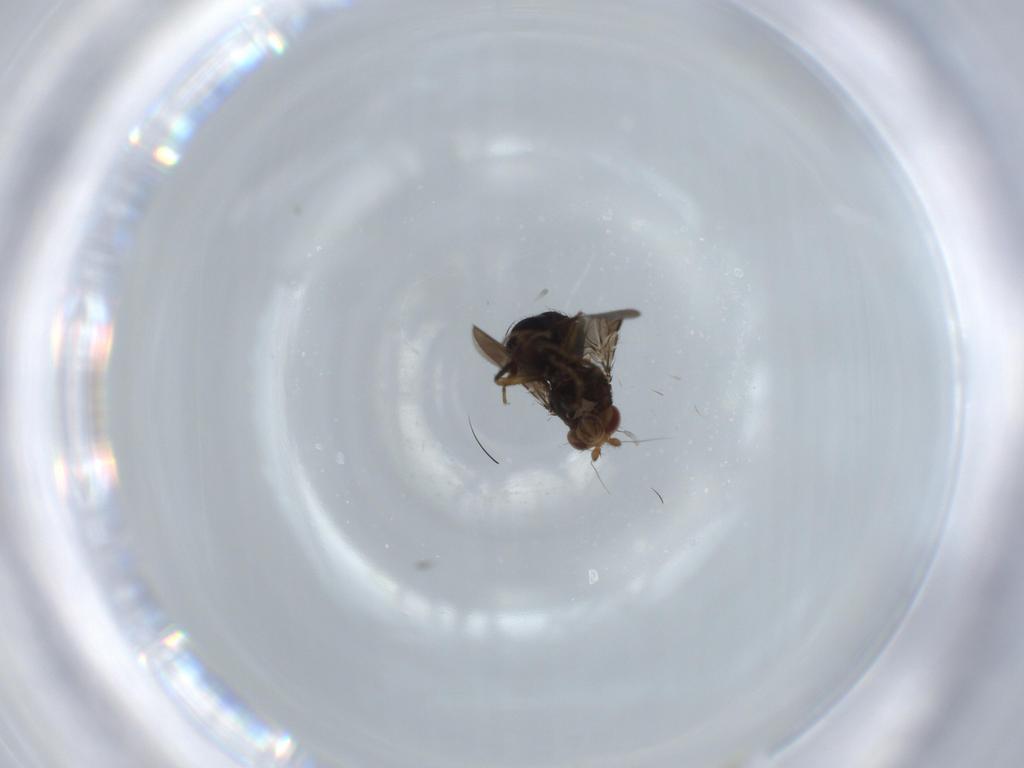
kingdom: Animalia
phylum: Arthropoda
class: Insecta
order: Diptera
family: Sphaeroceridae
